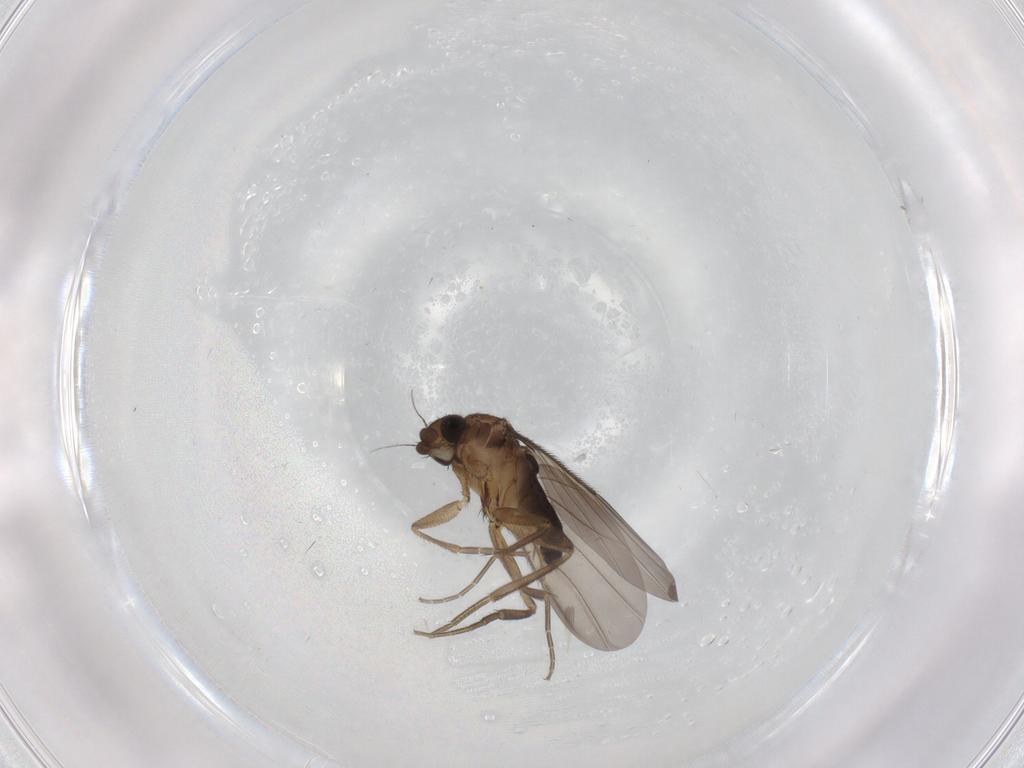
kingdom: Animalia
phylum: Arthropoda
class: Insecta
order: Diptera
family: Phoridae
